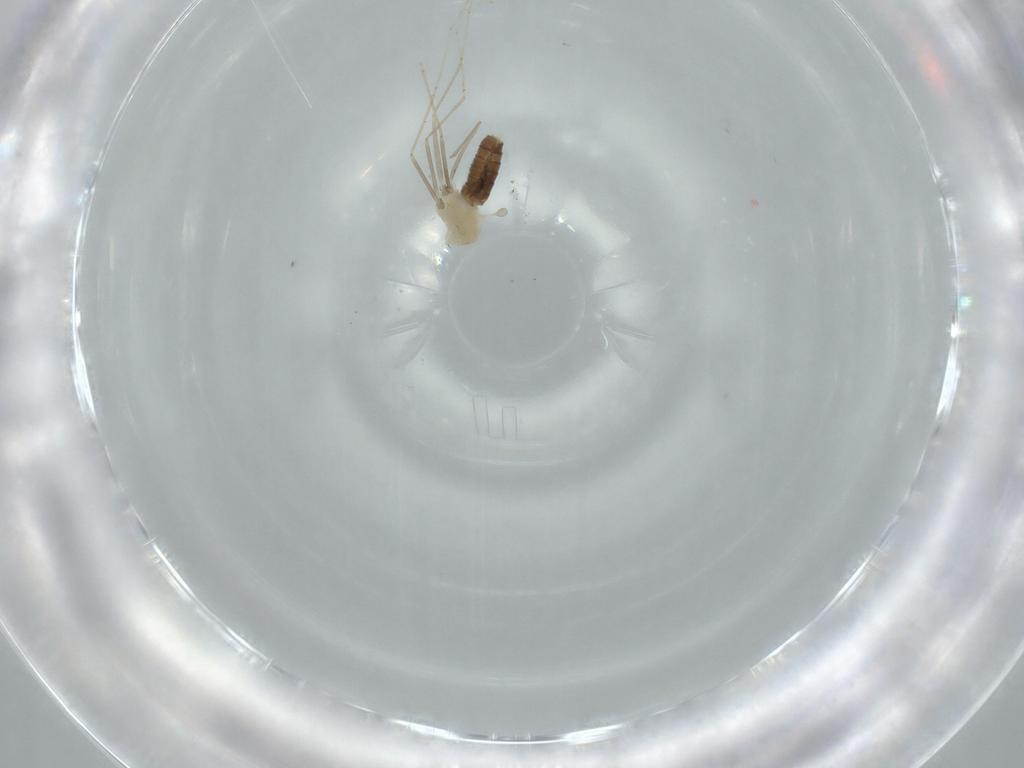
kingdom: Animalia
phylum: Arthropoda
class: Insecta
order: Diptera
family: Cecidomyiidae
